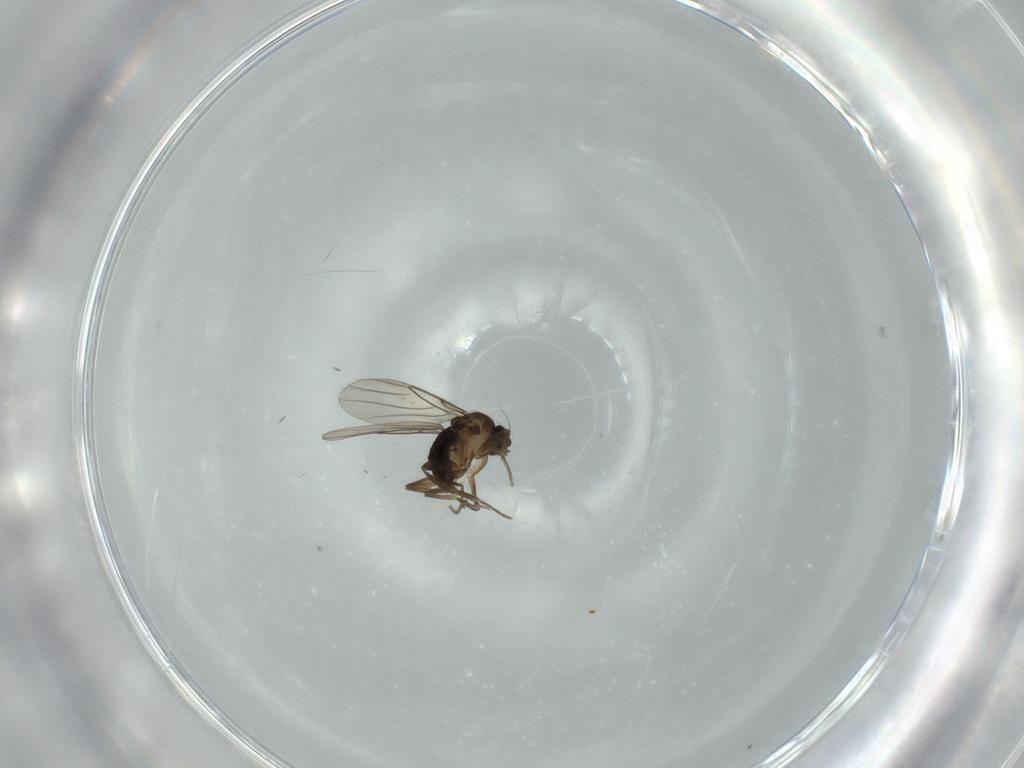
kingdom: Animalia
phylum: Arthropoda
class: Insecta
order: Diptera
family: Phoridae
